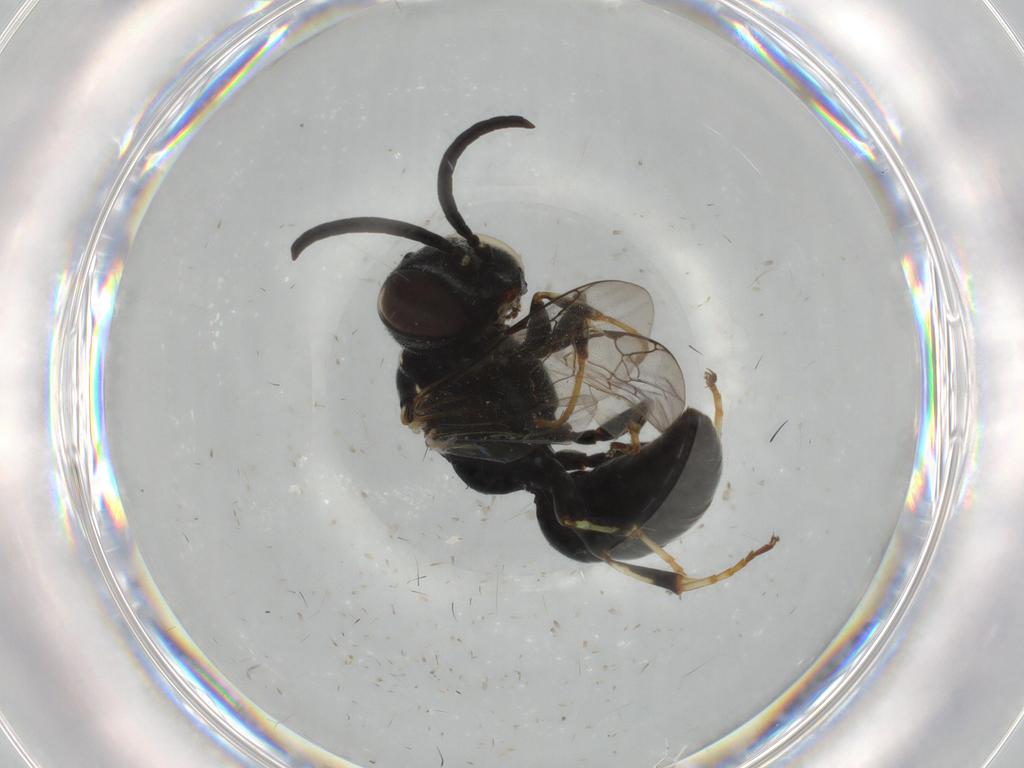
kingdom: Animalia
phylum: Arthropoda
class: Insecta
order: Hymenoptera
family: Scelionidae
